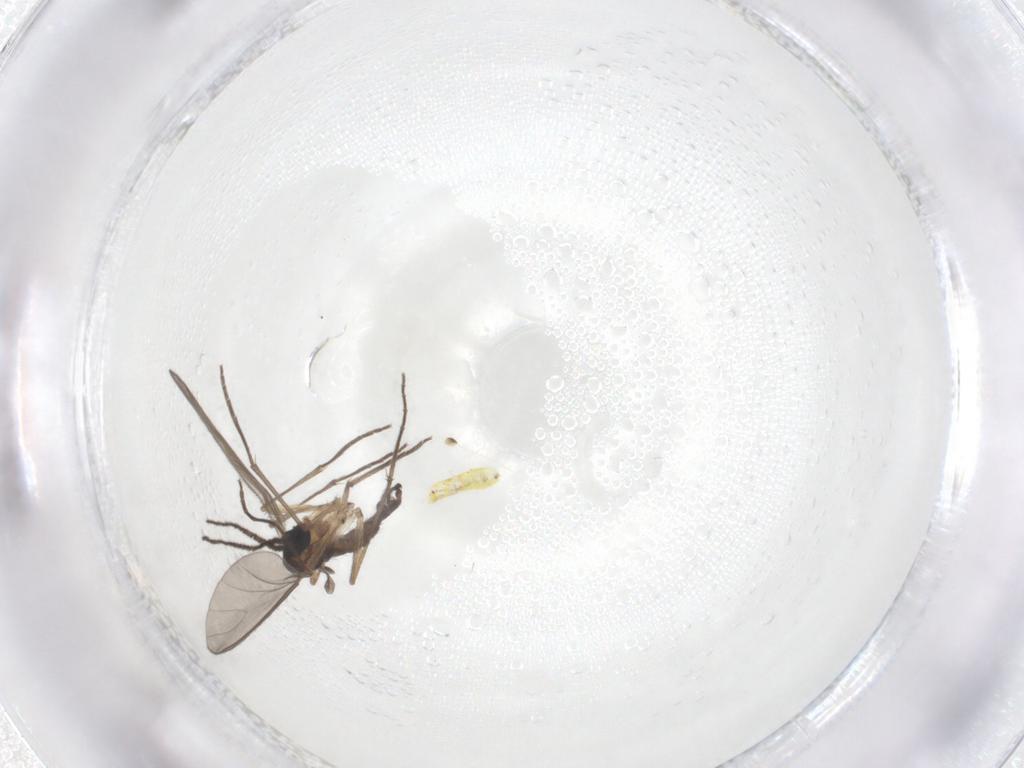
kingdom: Animalia
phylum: Arthropoda
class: Insecta
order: Diptera
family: Sciaridae
